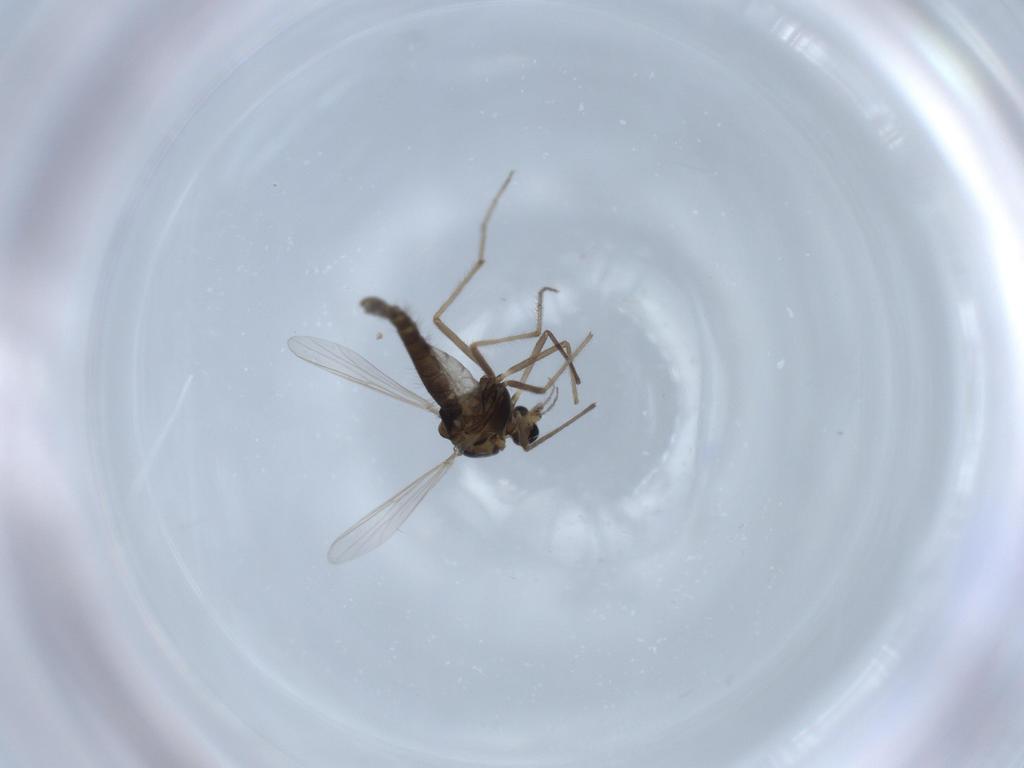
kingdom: Animalia
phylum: Arthropoda
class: Insecta
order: Diptera
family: Chironomidae
